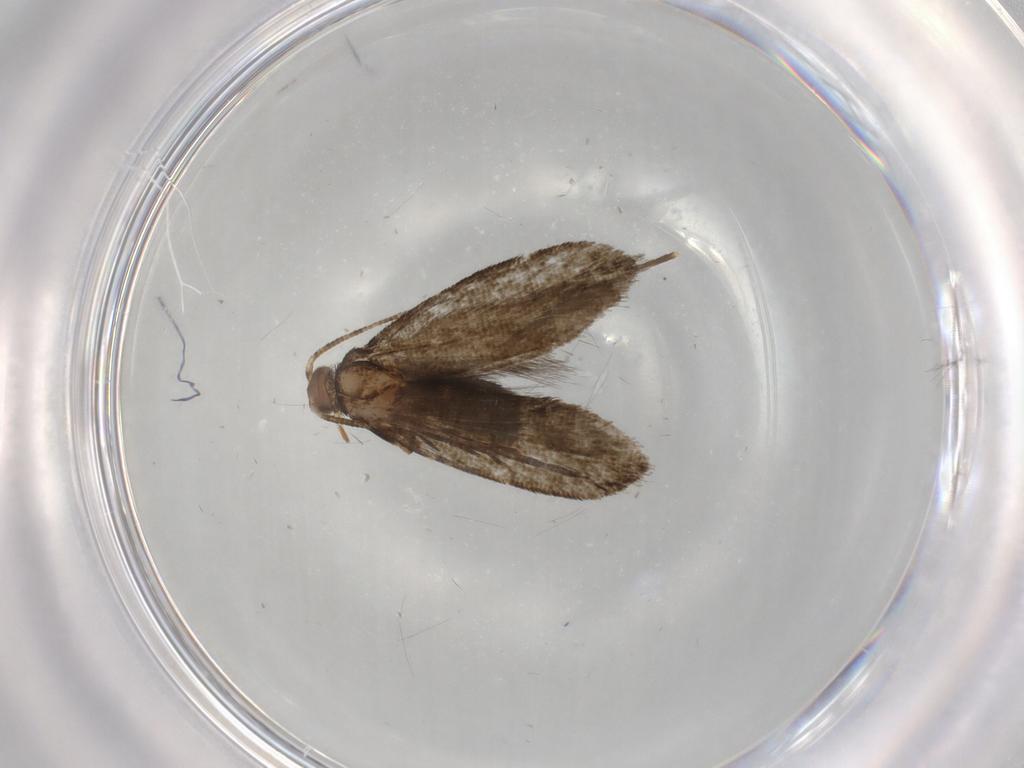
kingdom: Animalia
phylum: Arthropoda
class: Insecta
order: Lepidoptera
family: Tineidae
